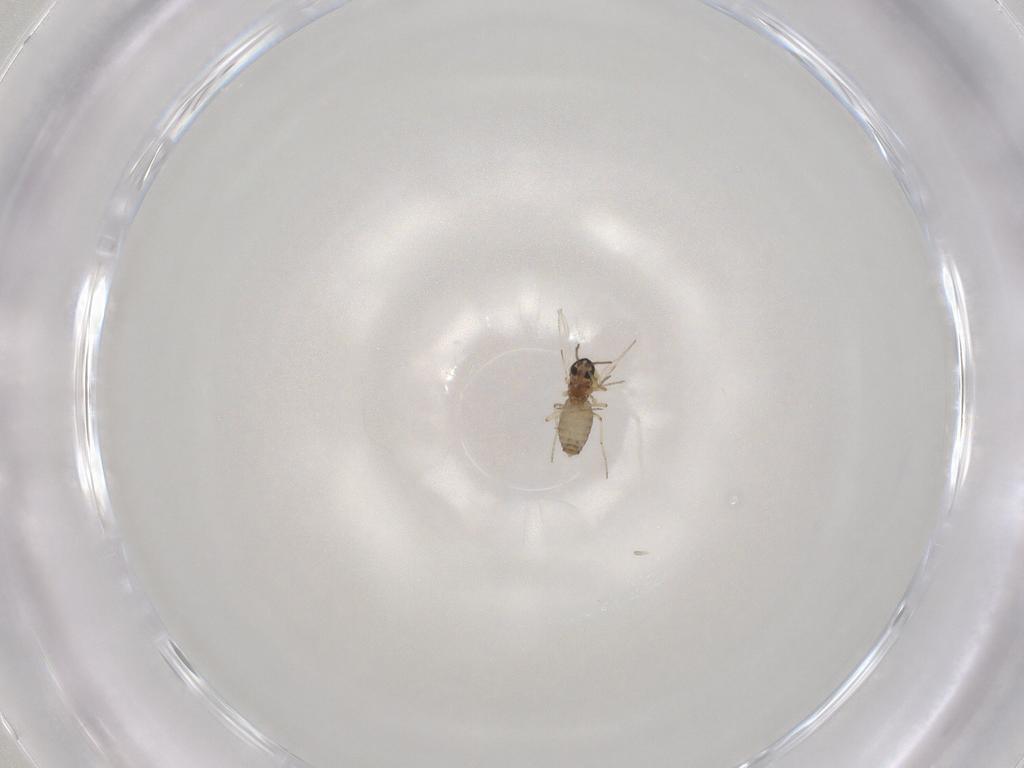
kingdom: Animalia
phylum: Arthropoda
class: Insecta
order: Diptera
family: Ceratopogonidae
